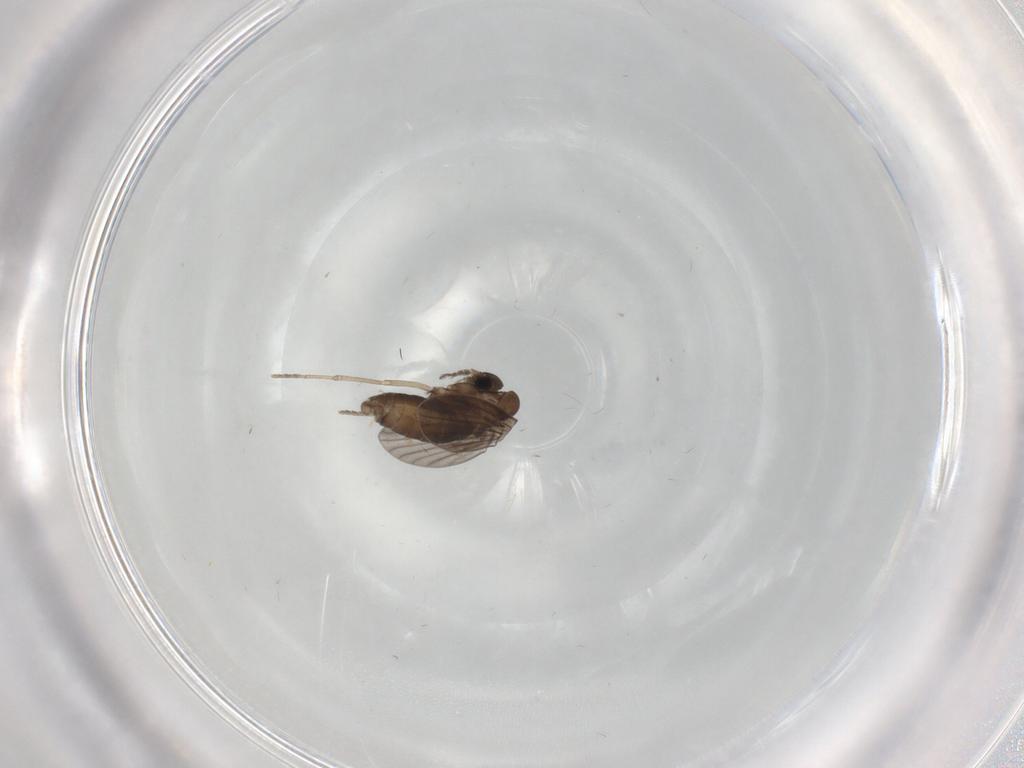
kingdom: Animalia
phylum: Arthropoda
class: Insecta
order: Diptera
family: Cecidomyiidae
